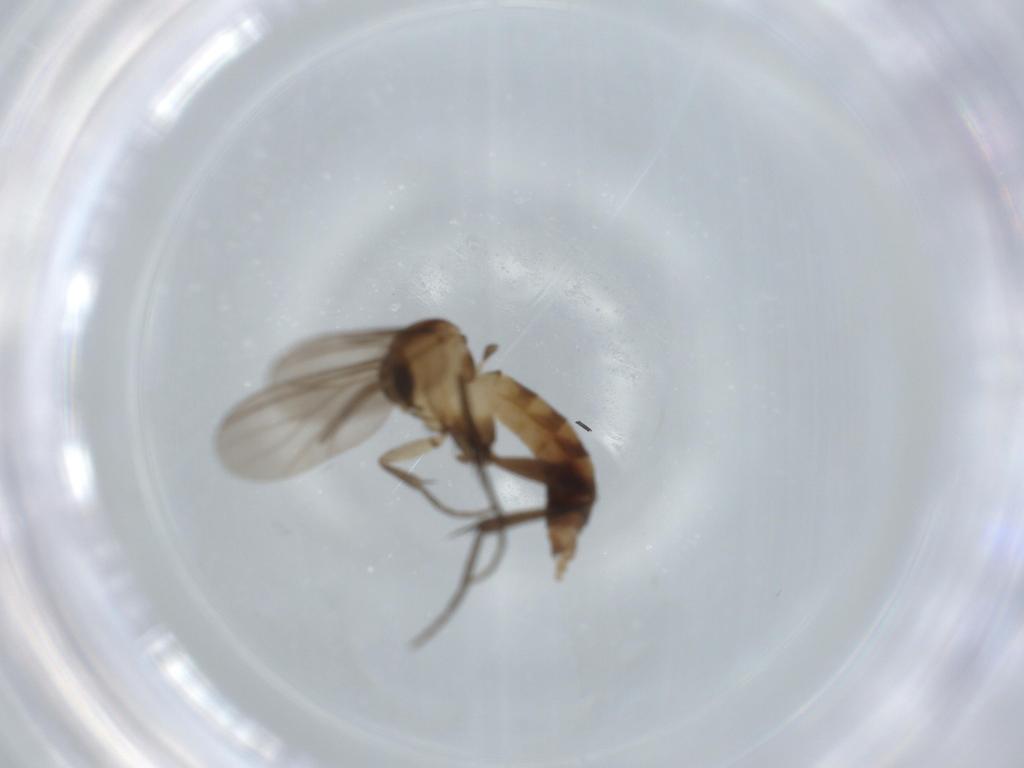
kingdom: Animalia
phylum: Arthropoda
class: Insecta
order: Diptera
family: Hybotidae
